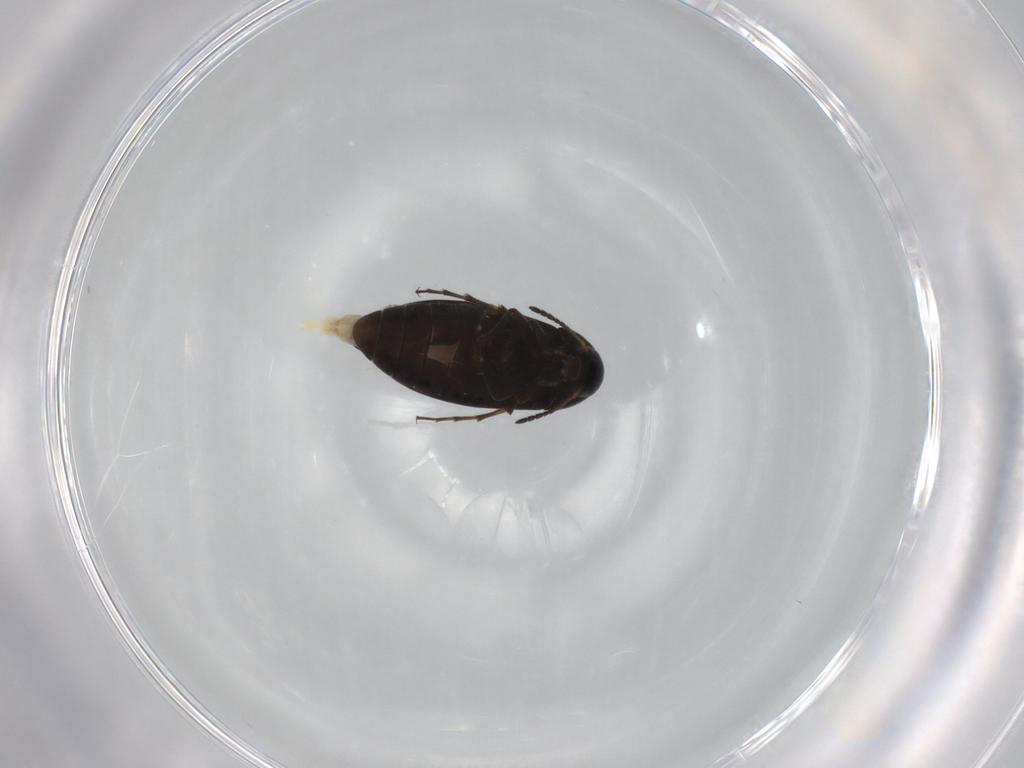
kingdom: Animalia
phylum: Arthropoda
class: Insecta
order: Coleoptera
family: Scraptiidae
